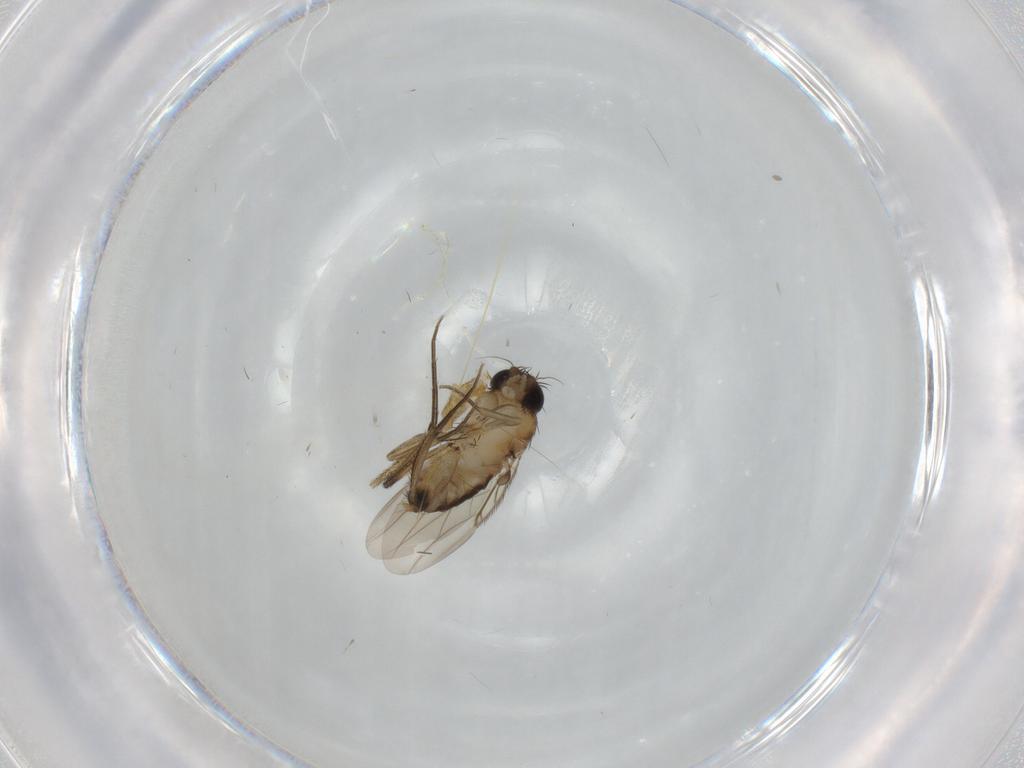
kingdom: Animalia
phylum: Arthropoda
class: Insecta
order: Diptera
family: Phoridae
